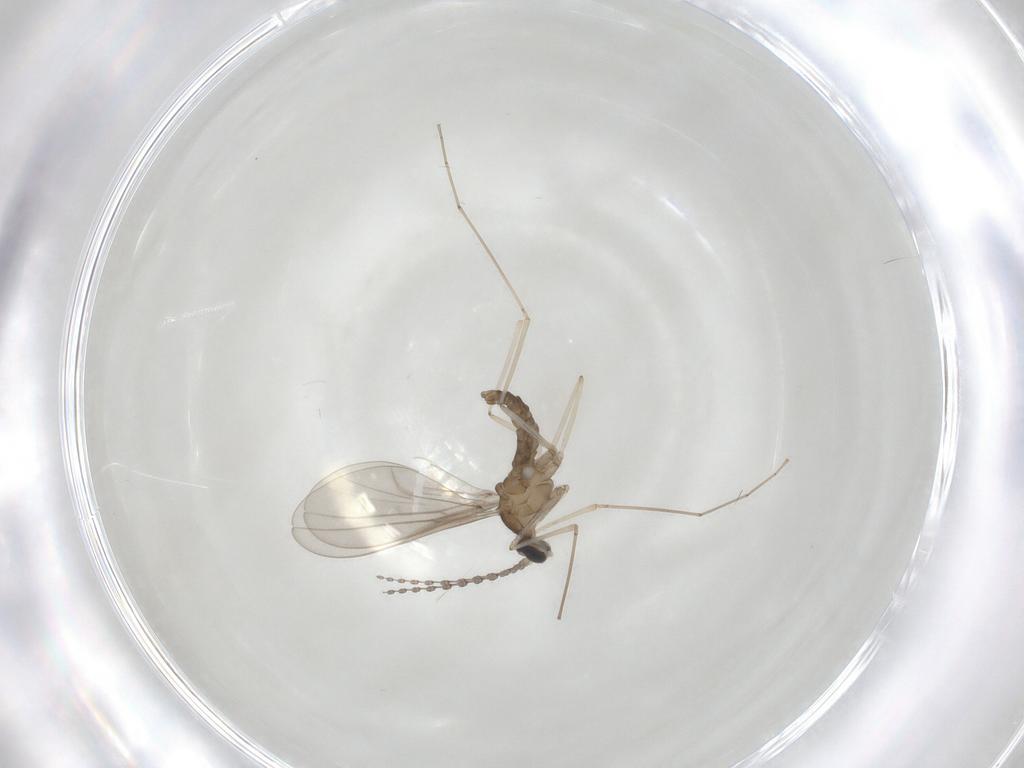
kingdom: Animalia
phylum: Arthropoda
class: Insecta
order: Diptera
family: Cecidomyiidae
